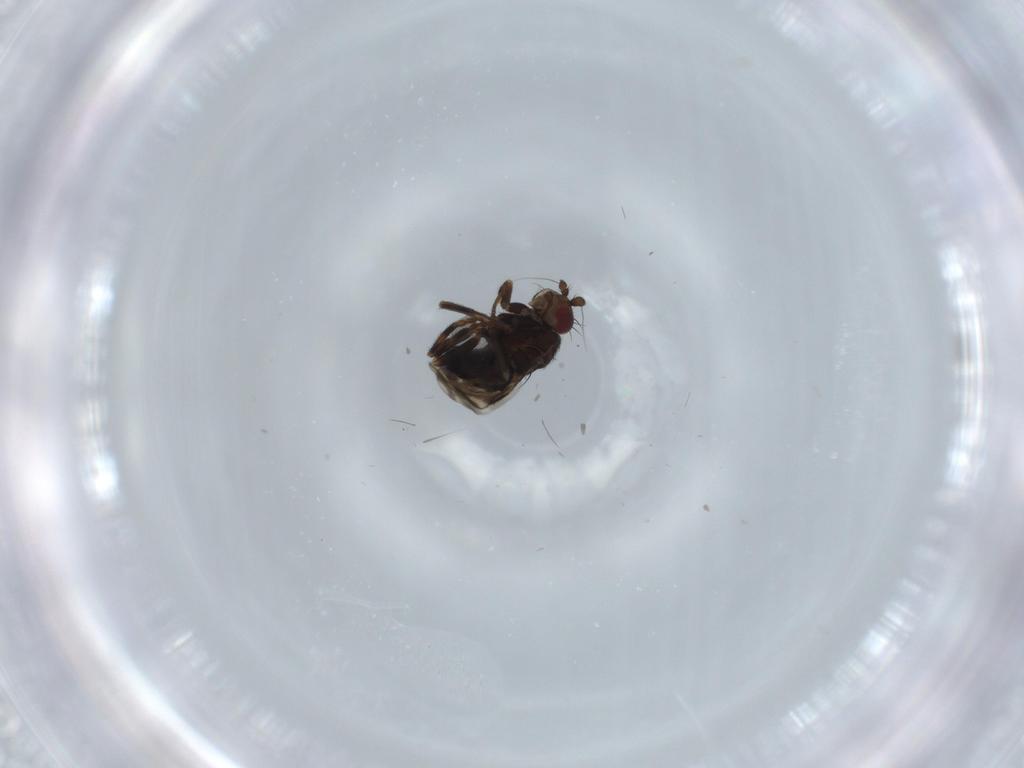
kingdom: Animalia
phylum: Arthropoda
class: Insecta
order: Diptera
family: Sphaeroceridae
